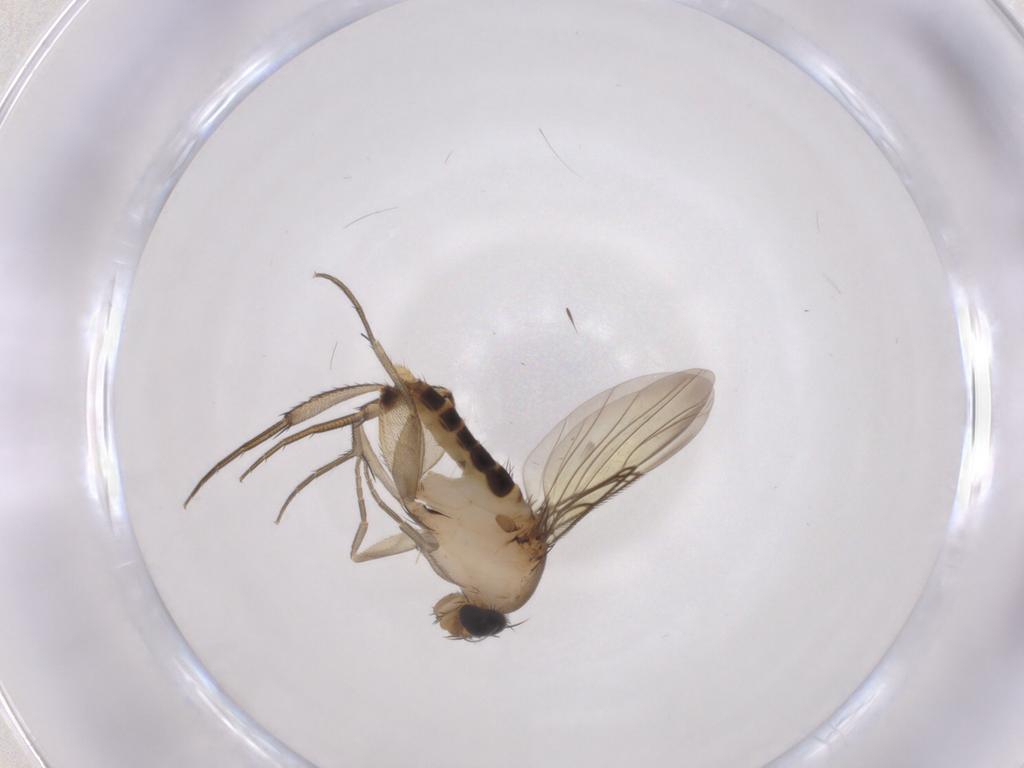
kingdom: Animalia
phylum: Arthropoda
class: Insecta
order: Diptera
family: Phoridae
